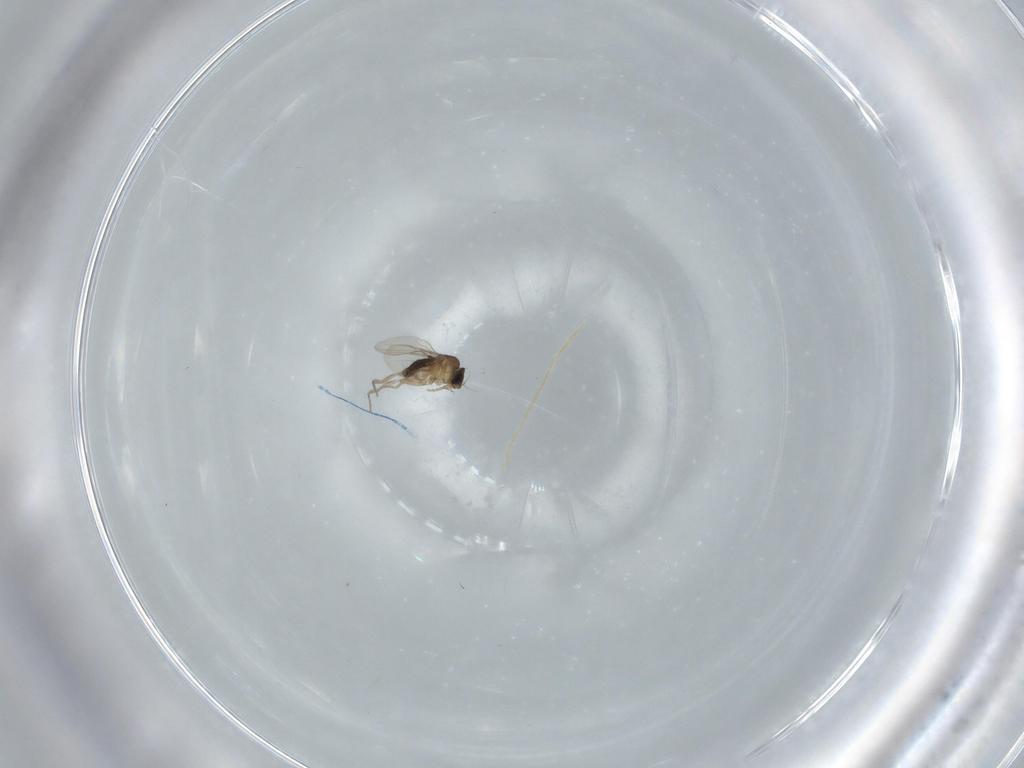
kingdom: Animalia
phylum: Arthropoda
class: Insecta
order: Diptera
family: Phoridae
